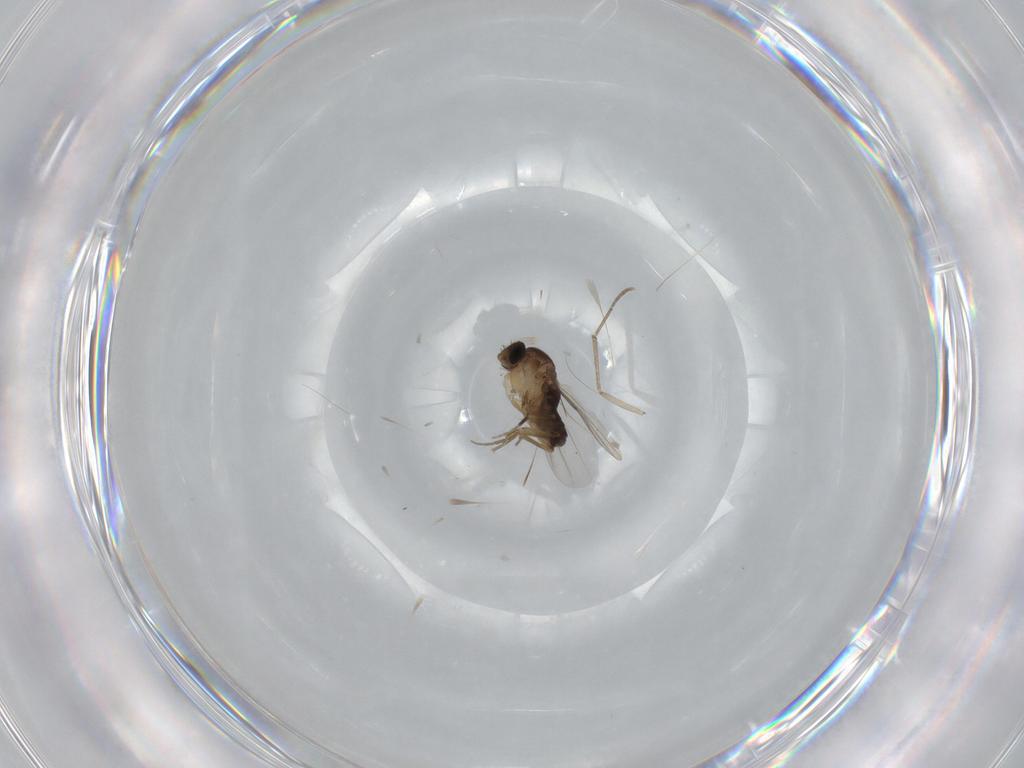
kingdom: Animalia
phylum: Arthropoda
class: Insecta
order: Diptera
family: Phoridae
